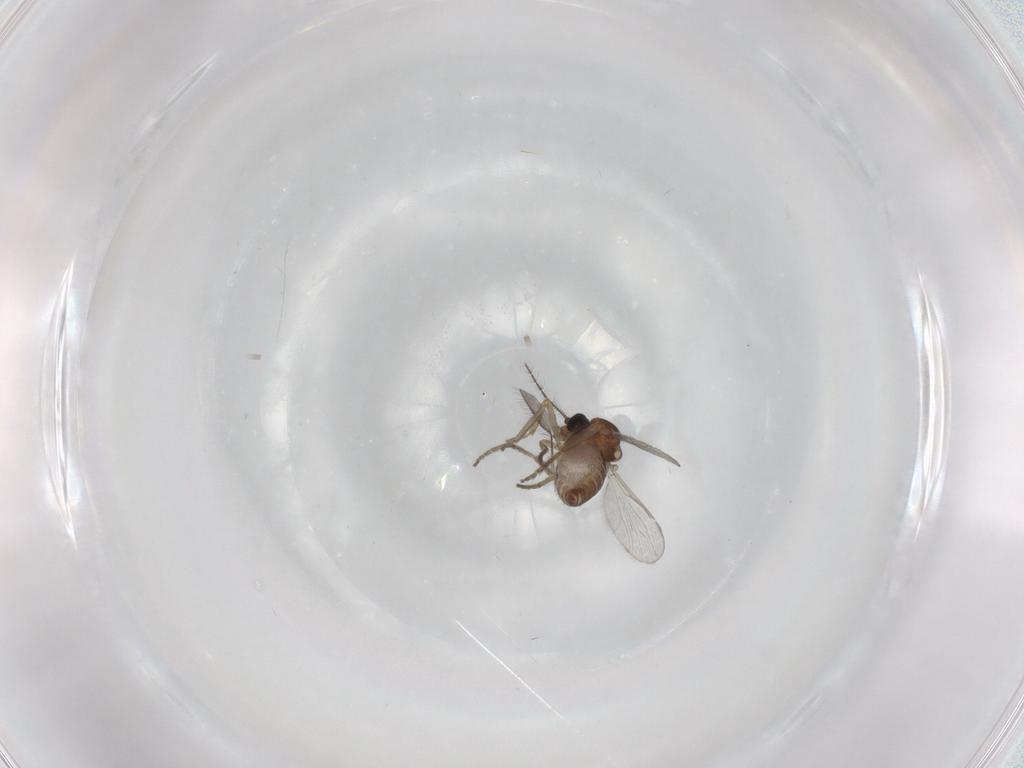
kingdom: Animalia
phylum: Arthropoda
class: Insecta
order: Diptera
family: Ceratopogonidae
